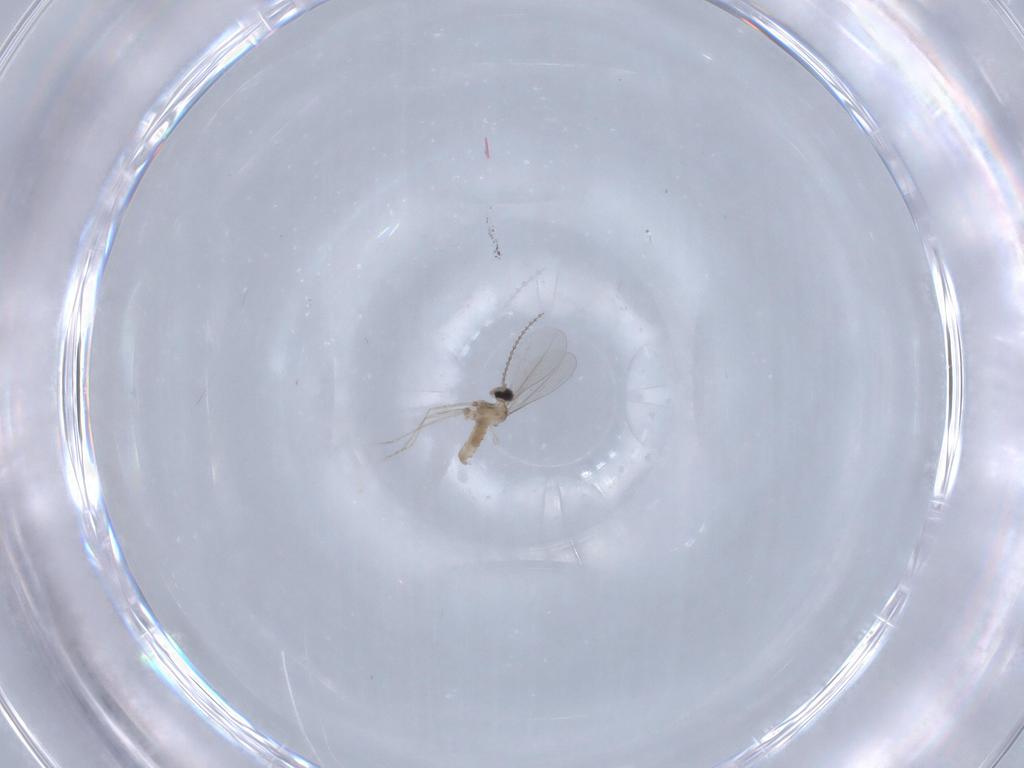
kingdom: Animalia
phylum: Arthropoda
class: Insecta
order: Diptera
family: Cecidomyiidae
